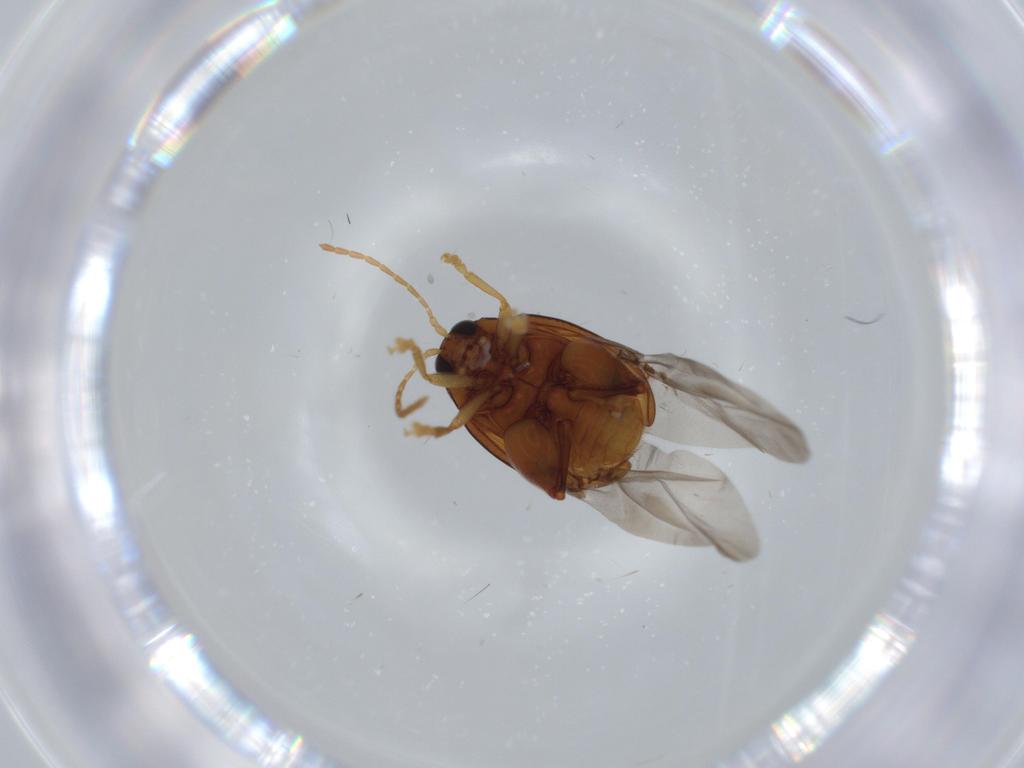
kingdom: Animalia
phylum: Arthropoda
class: Insecta
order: Coleoptera
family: Chrysomelidae
